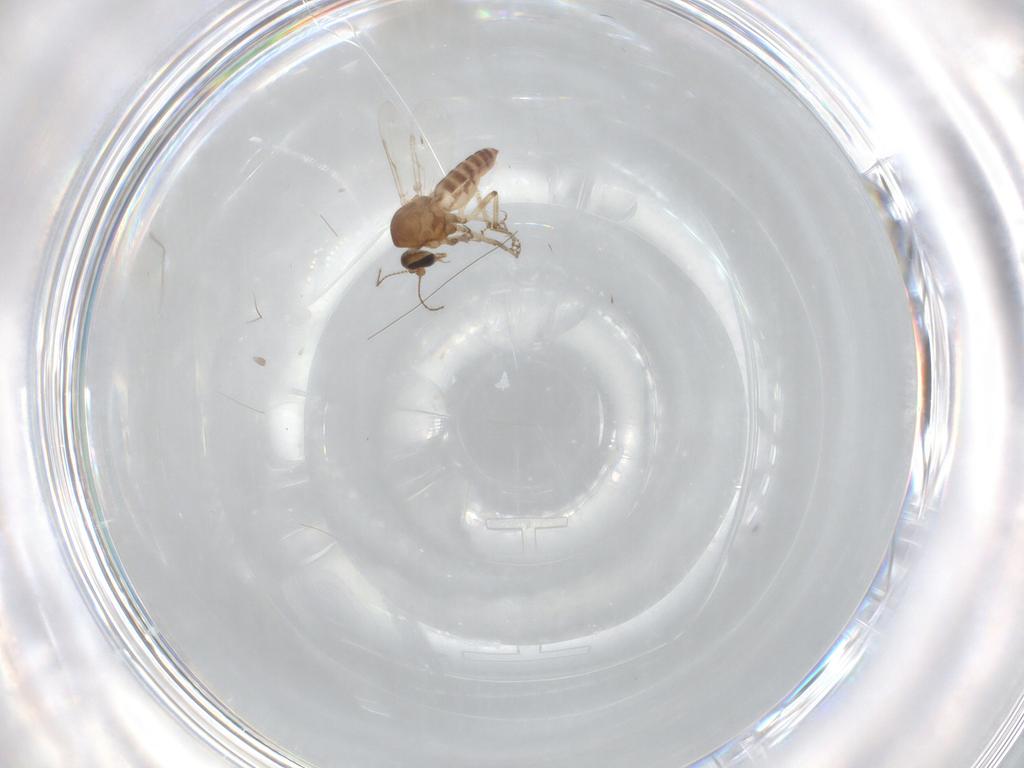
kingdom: Animalia
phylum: Arthropoda
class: Insecta
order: Diptera
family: Ceratopogonidae
